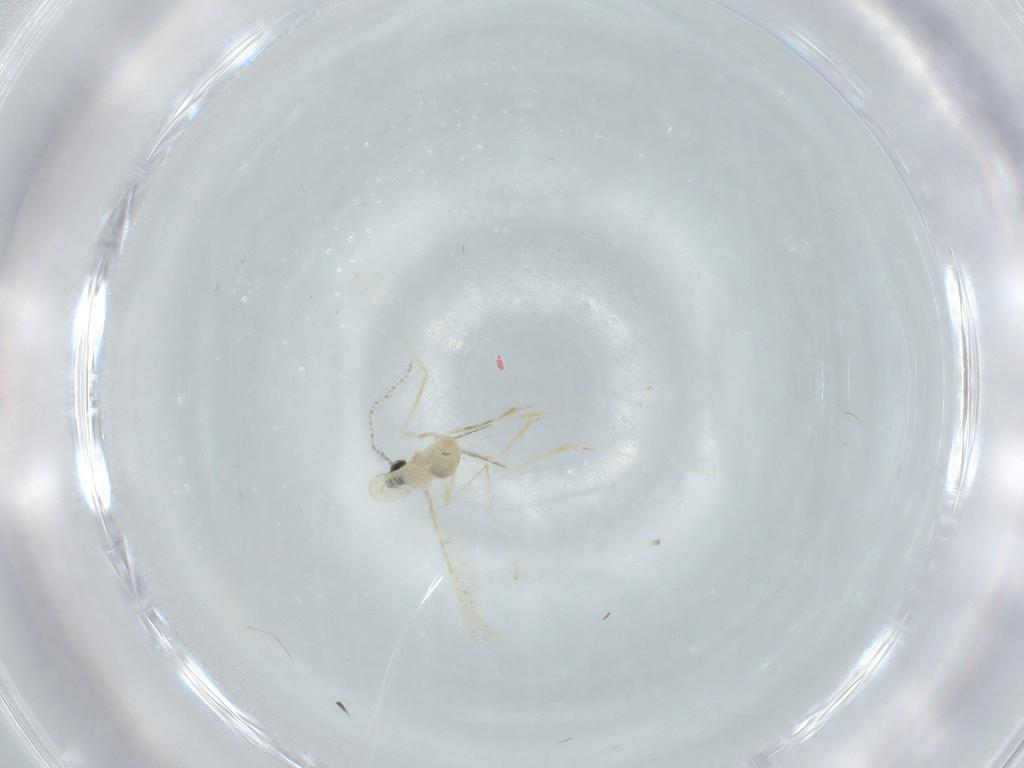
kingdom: Animalia
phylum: Arthropoda
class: Insecta
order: Diptera
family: Cecidomyiidae
